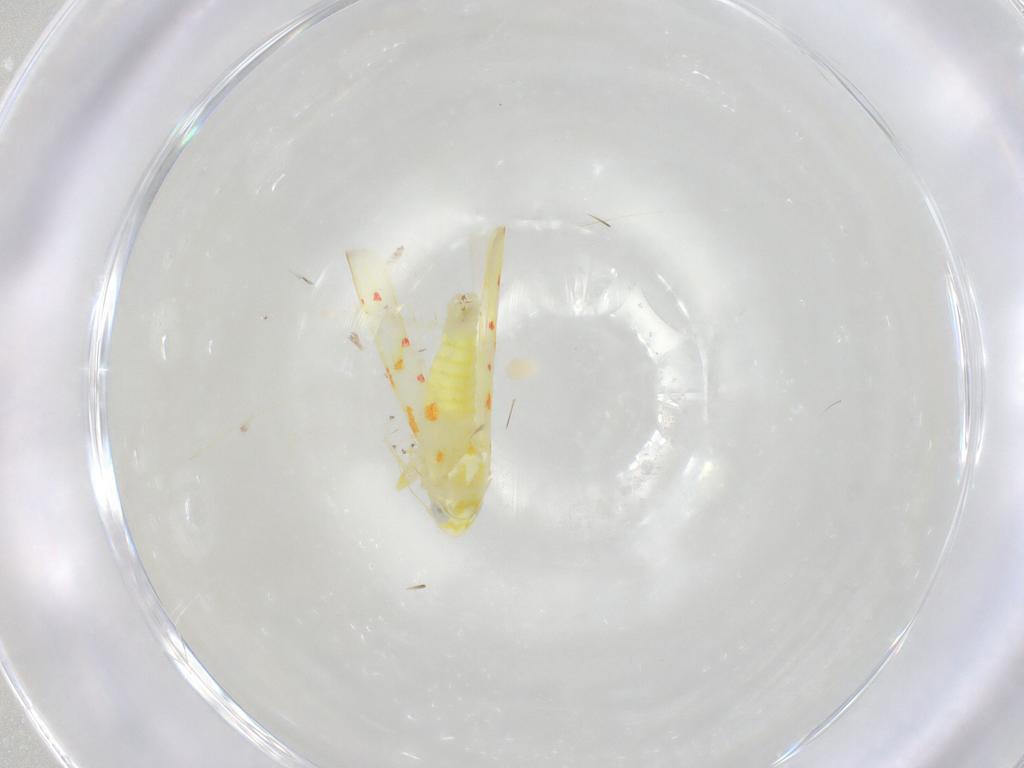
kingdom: Animalia
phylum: Arthropoda
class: Insecta
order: Hemiptera
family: Cicadellidae
